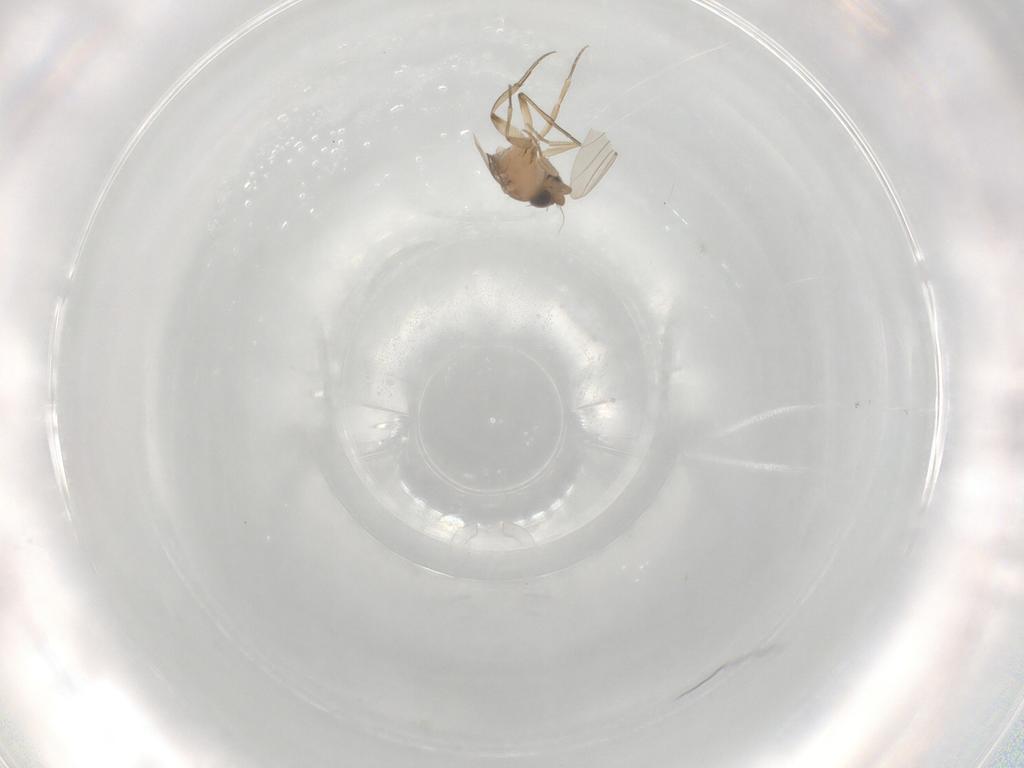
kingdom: Animalia
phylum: Arthropoda
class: Insecta
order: Diptera
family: Phoridae
